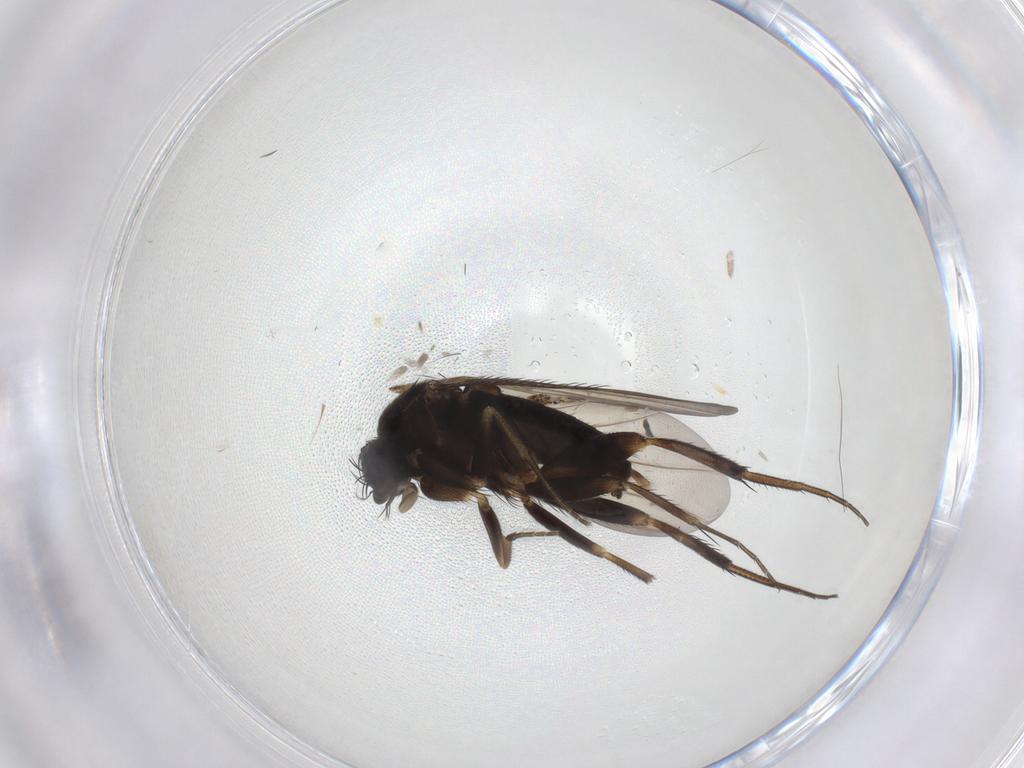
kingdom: Animalia
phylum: Arthropoda
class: Insecta
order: Diptera
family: Phoridae
